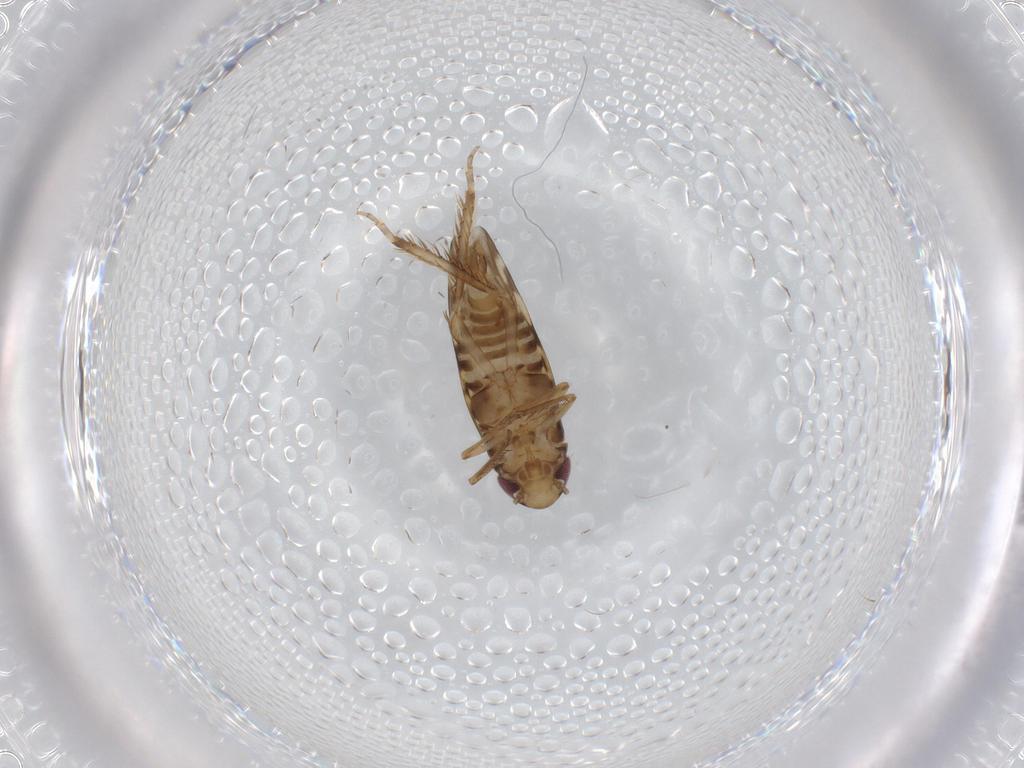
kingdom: Animalia
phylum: Arthropoda
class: Insecta
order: Hemiptera
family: Cicadellidae
